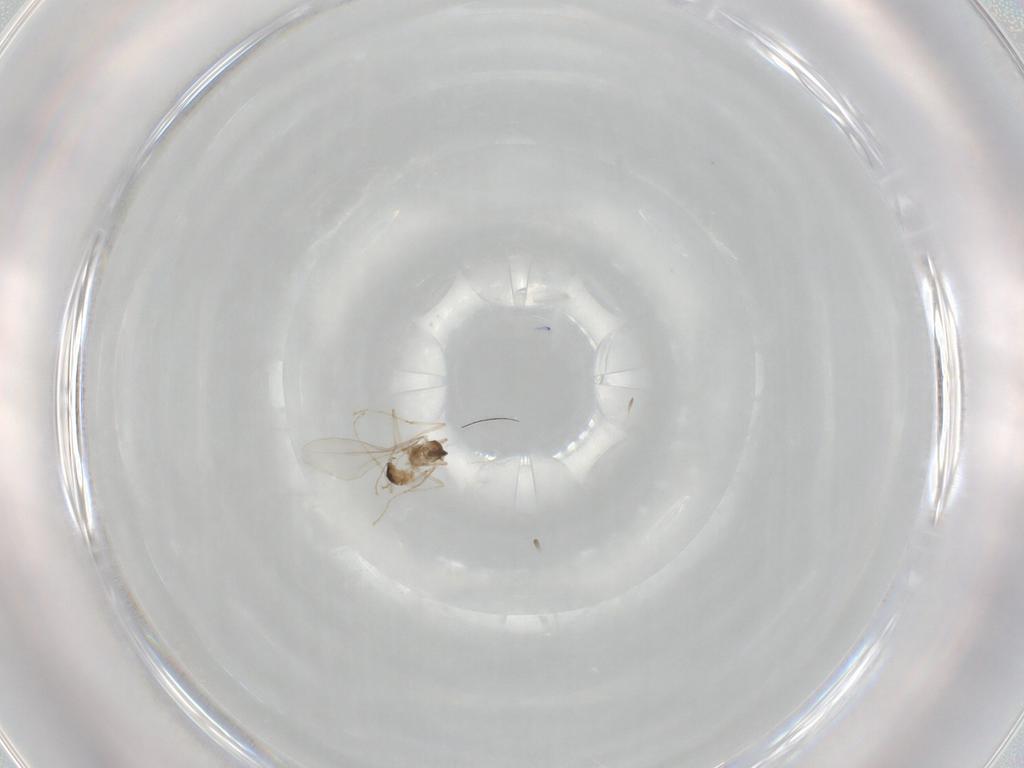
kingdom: Animalia
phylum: Arthropoda
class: Insecta
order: Diptera
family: Cecidomyiidae
